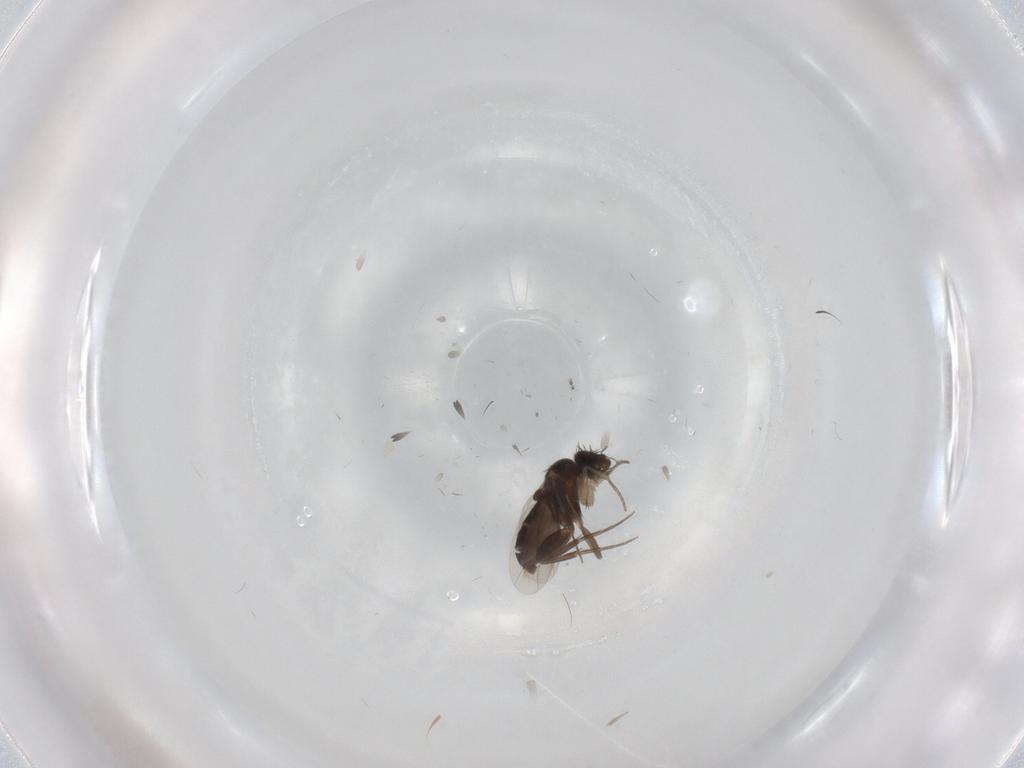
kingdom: Animalia
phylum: Arthropoda
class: Insecta
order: Diptera
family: Phoridae
